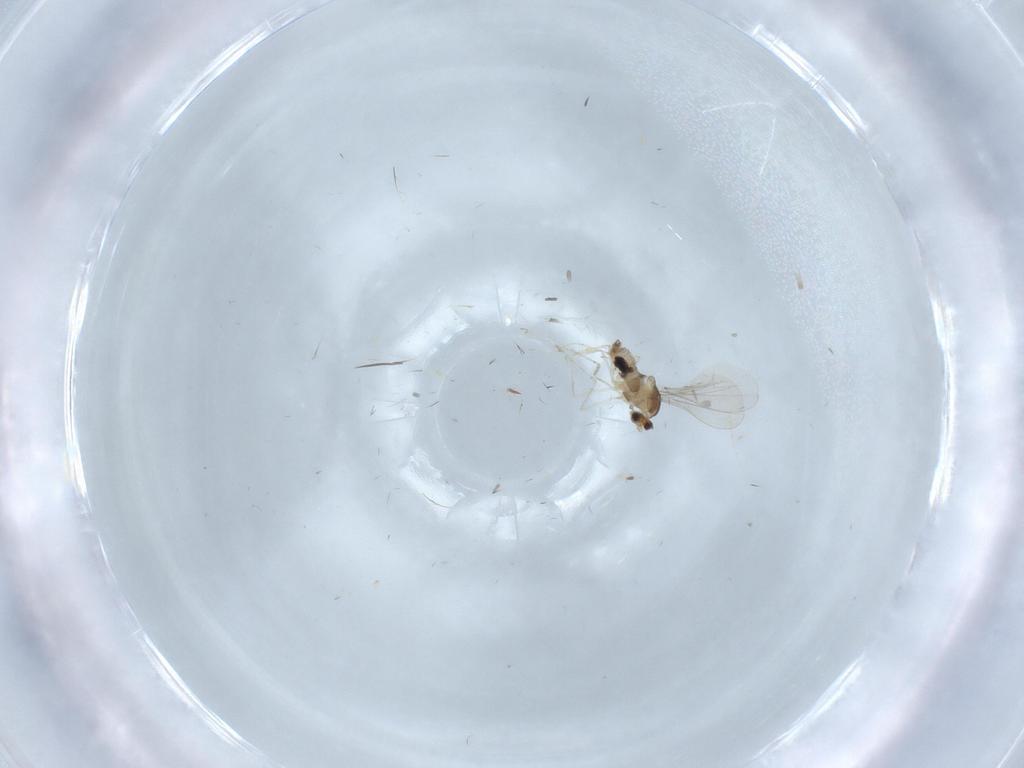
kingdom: Animalia
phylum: Arthropoda
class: Insecta
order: Diptera
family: Cecidomyiidae
